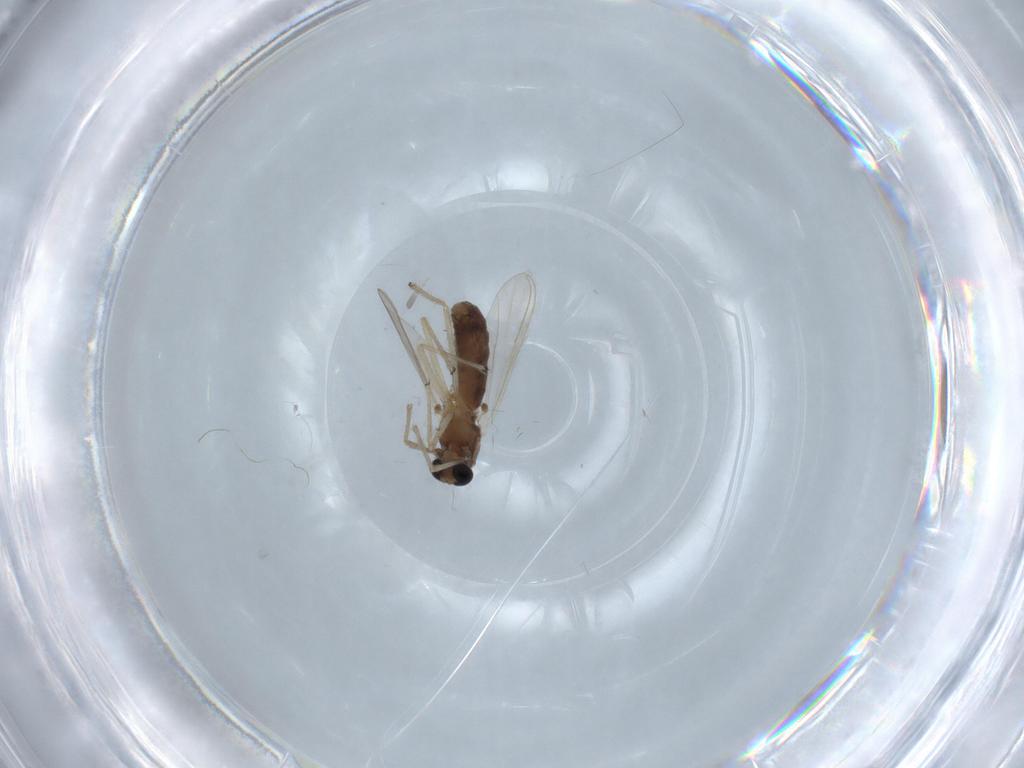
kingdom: Animalia
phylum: Arthropoda
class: Insecta
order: Diptera
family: Chironomidae
